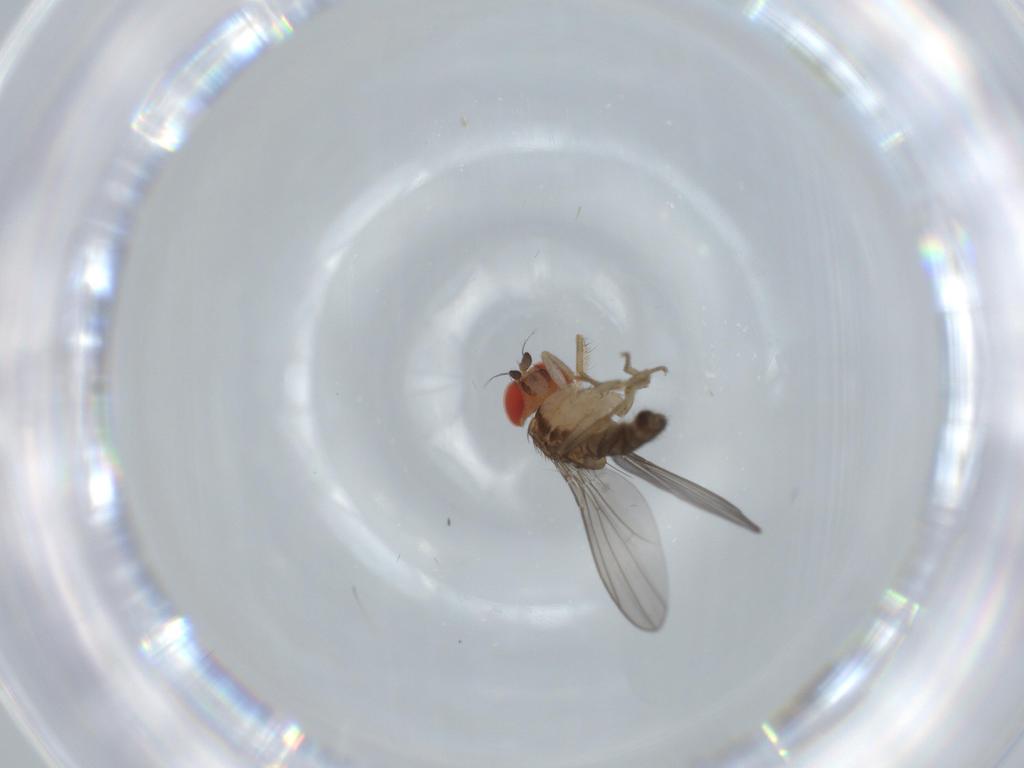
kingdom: Animalia
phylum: Arthropoda
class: Insecta
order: Diptera
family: Drosophilidae
